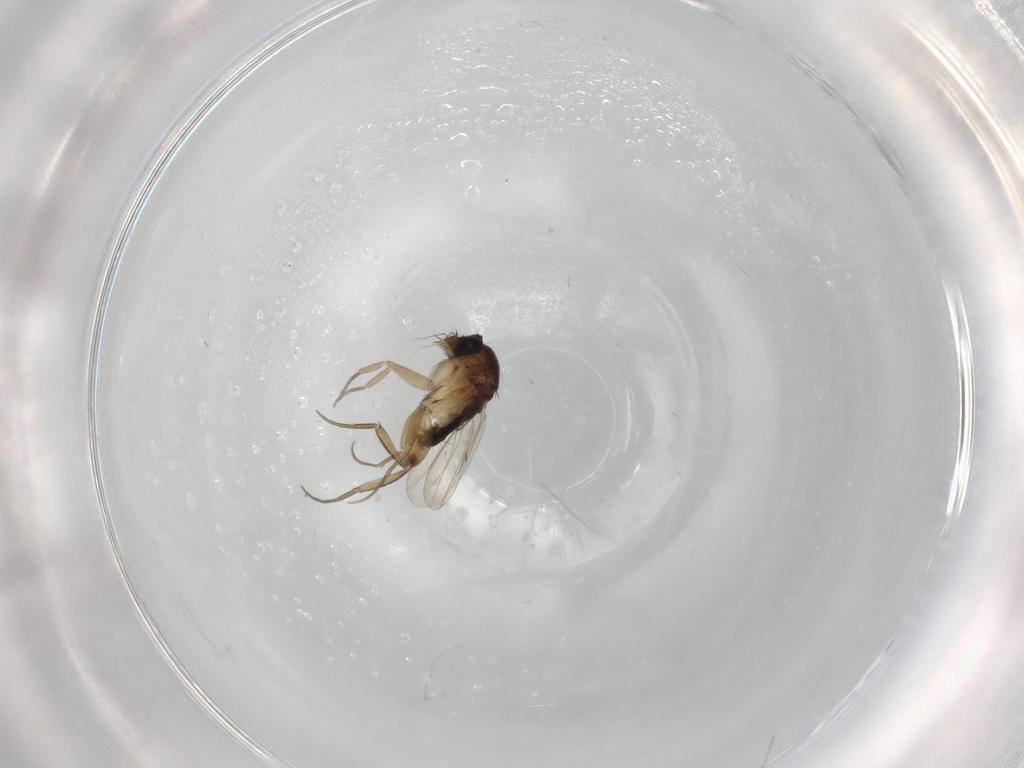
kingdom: Animalia
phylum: Arthropoda
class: Insecta
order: Diptera
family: Phoridae
